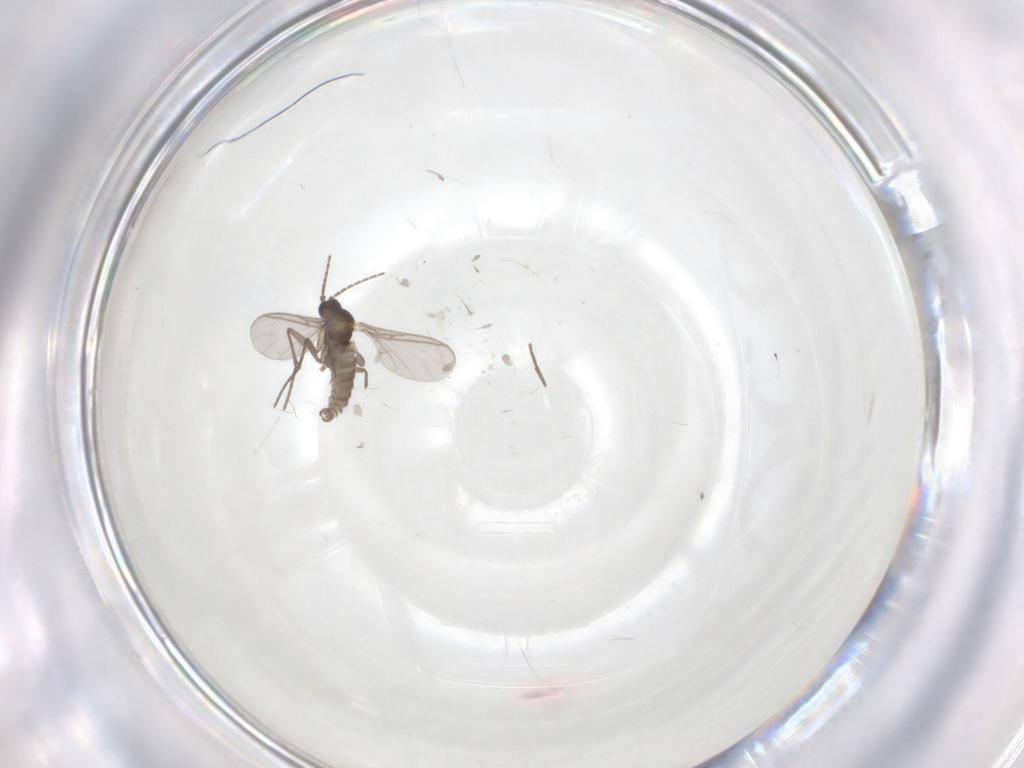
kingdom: Animalia
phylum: Arthropoda
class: Insecta
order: Diptera
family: Sciaridae
